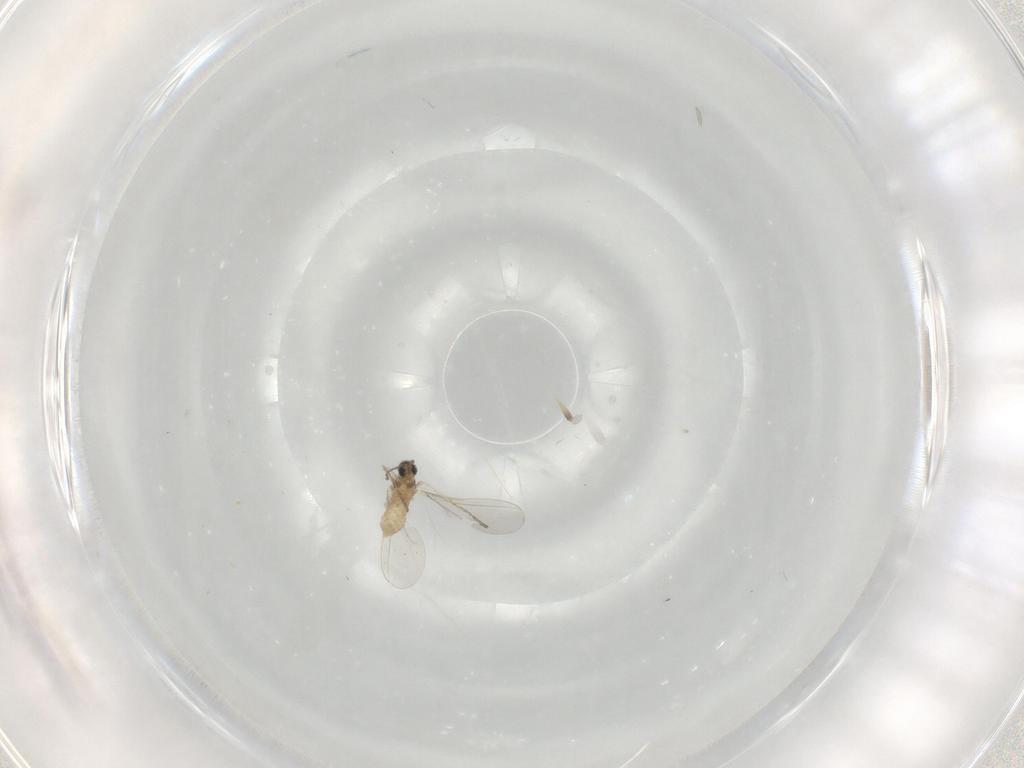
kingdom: Animalia
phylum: Arthropoda
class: Insecta
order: Diptera
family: Cecidomyiidae
